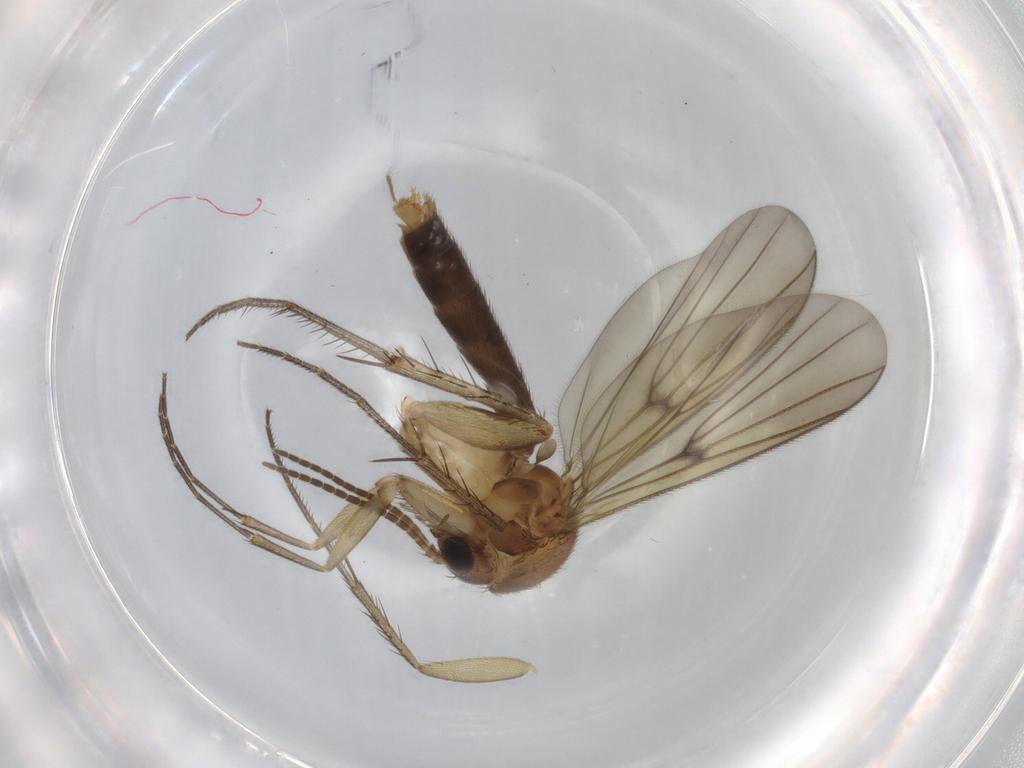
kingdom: Animalia
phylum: Arthropoda
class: Insecta
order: Diptera
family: Mycetophilidae
